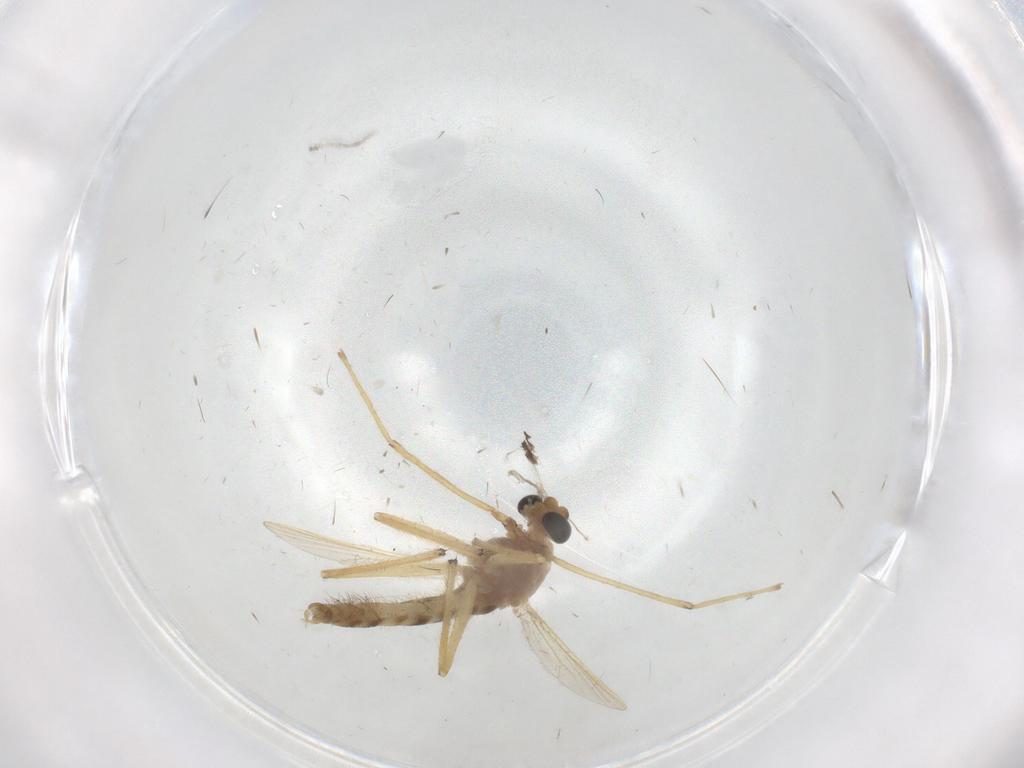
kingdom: Animalia
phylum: Arthropoda
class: Insecta
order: Diptera
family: Chironomidae
